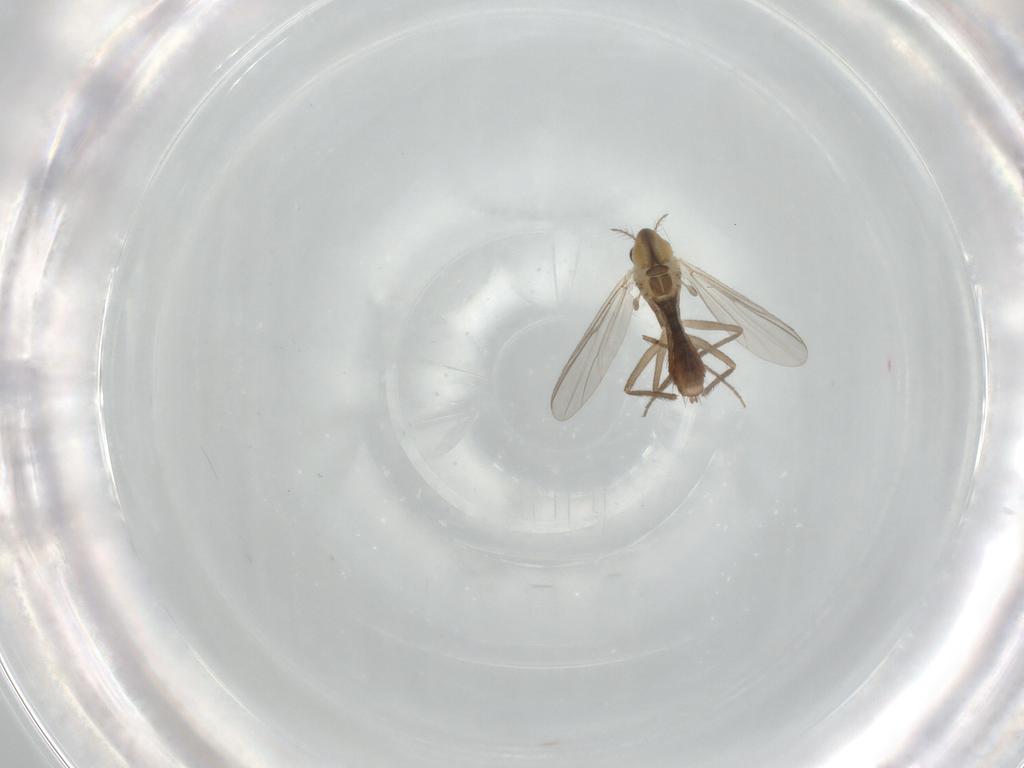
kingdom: Animalia
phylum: Arthropoda
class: Insecta
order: Diptera
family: Chironomidae
